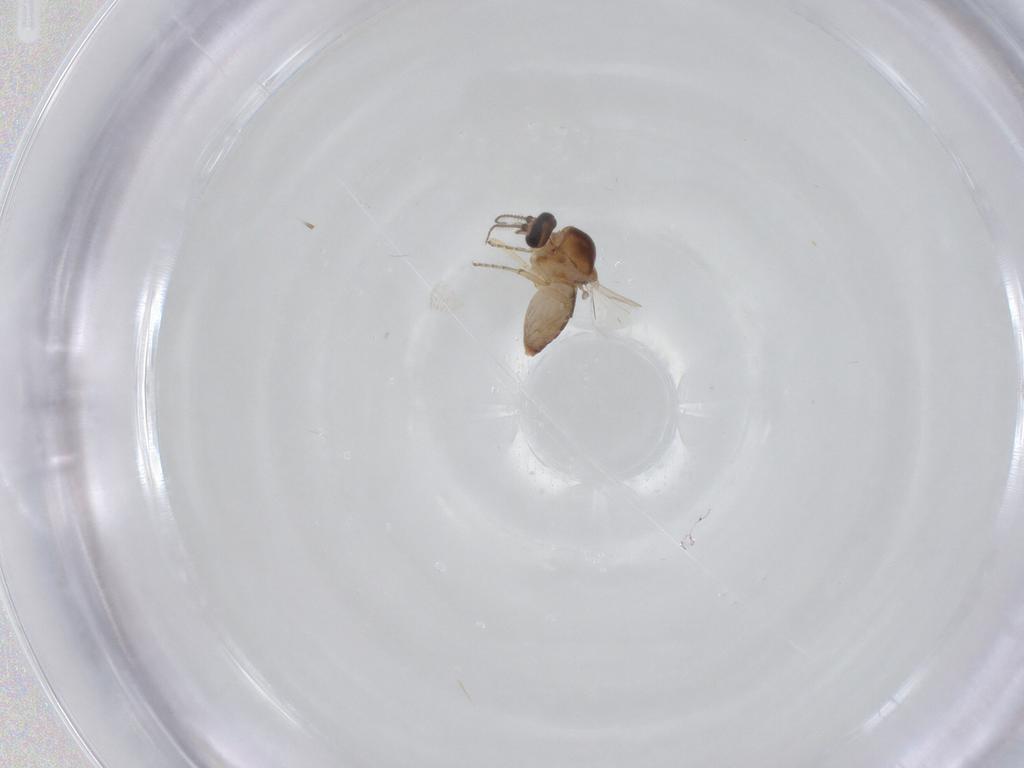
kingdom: Animalia
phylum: Arthropoda
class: Insecta
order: Diptera
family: Ceratopogonidae
